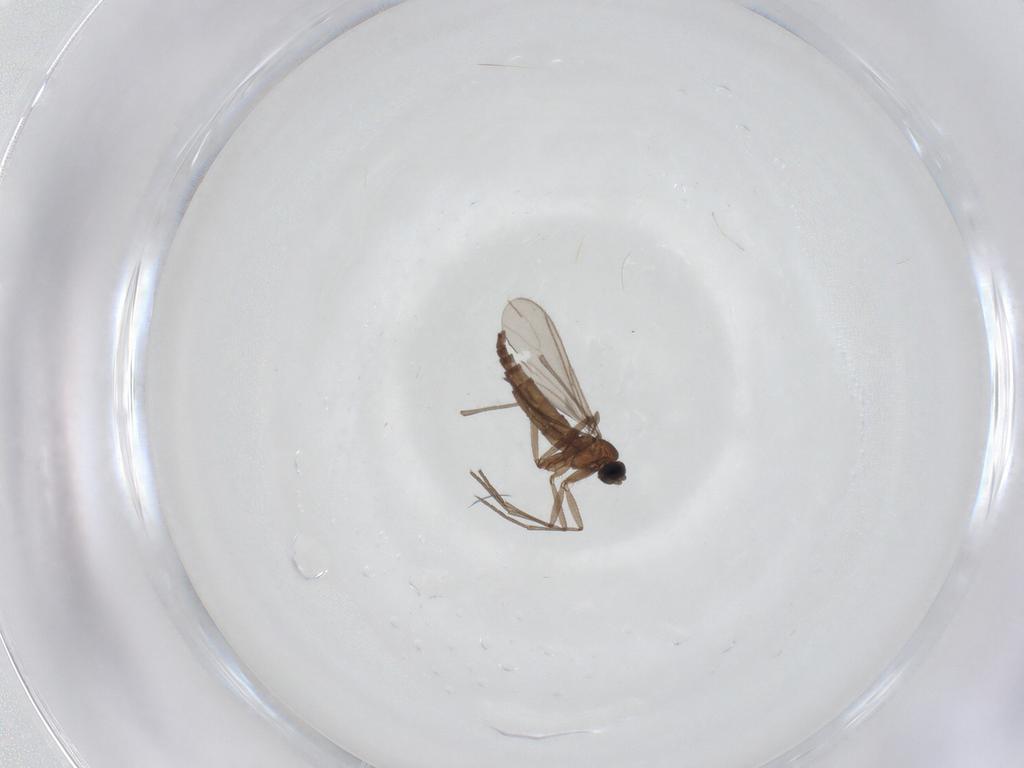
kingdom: Animalia
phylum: Arthropoda
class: Insecta
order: Diptera
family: Sciaridae
